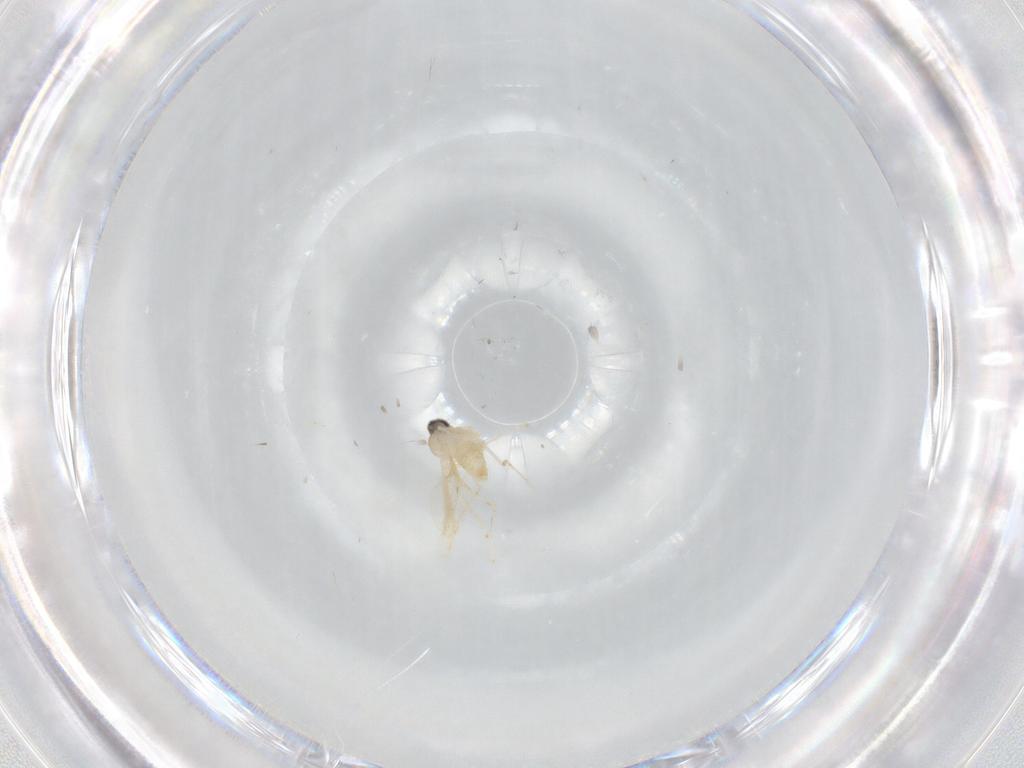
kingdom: Animalia
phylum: Arthropoda
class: Insecta
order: Diptera
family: Cecidomyiidae
